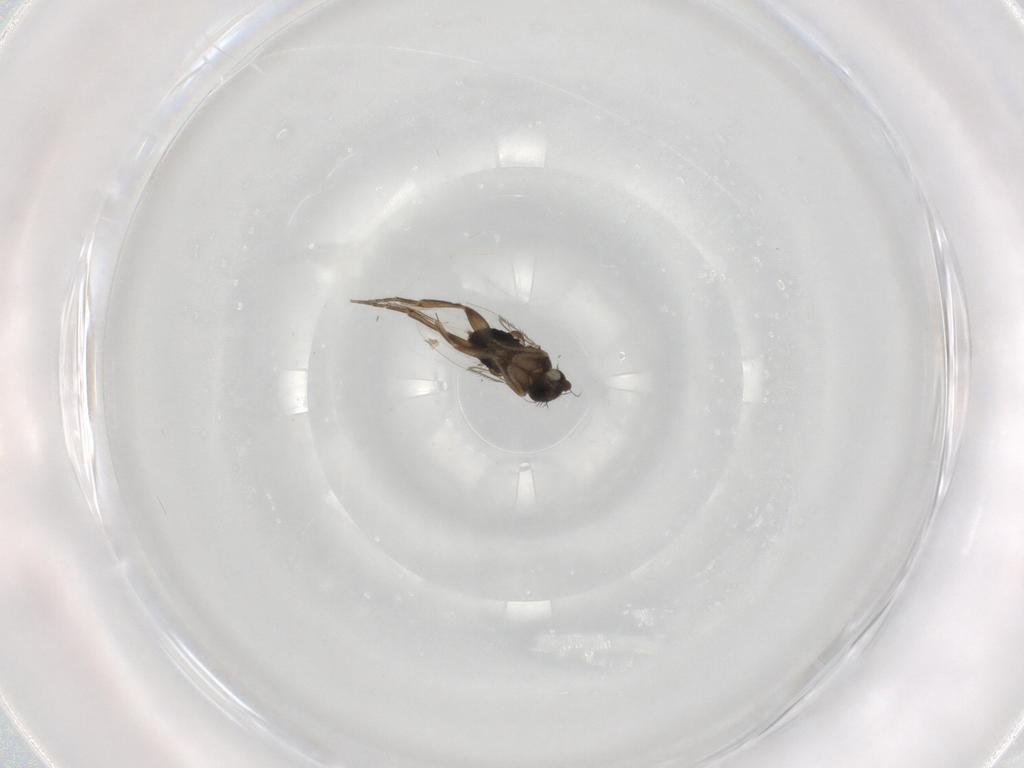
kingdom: Animalia
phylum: Arthropoda
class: Insecta
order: Diptera
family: Phoridae
